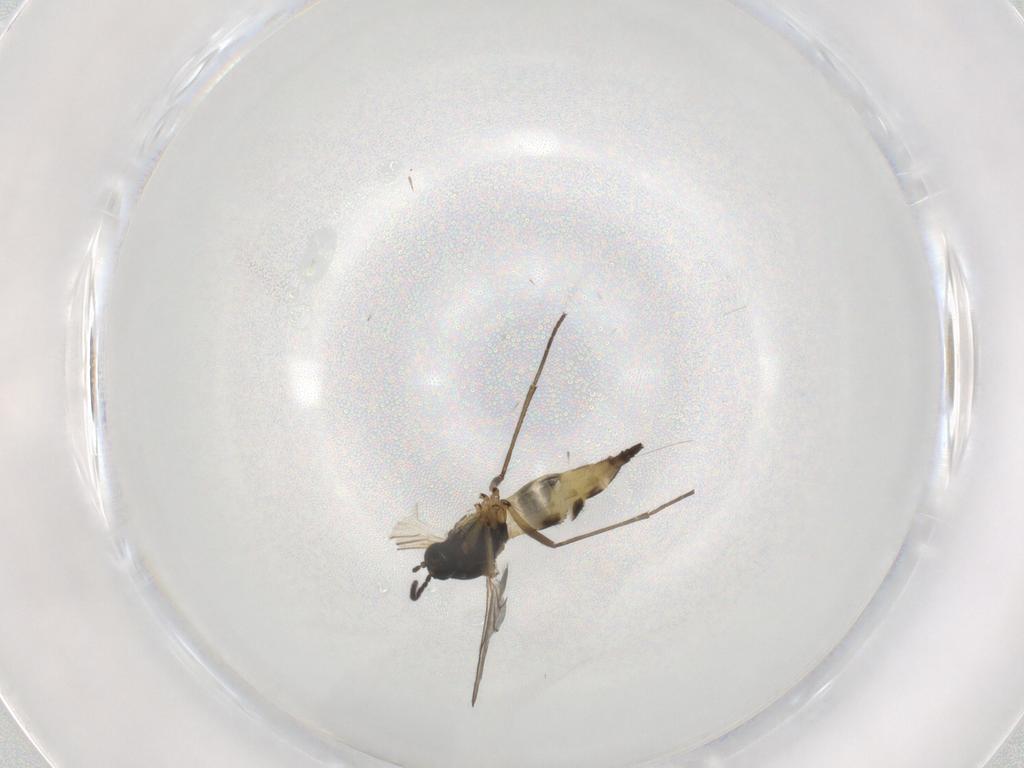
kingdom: Animalia
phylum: Arthropoda
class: Insecta
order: Diptera
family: Sciaridae
